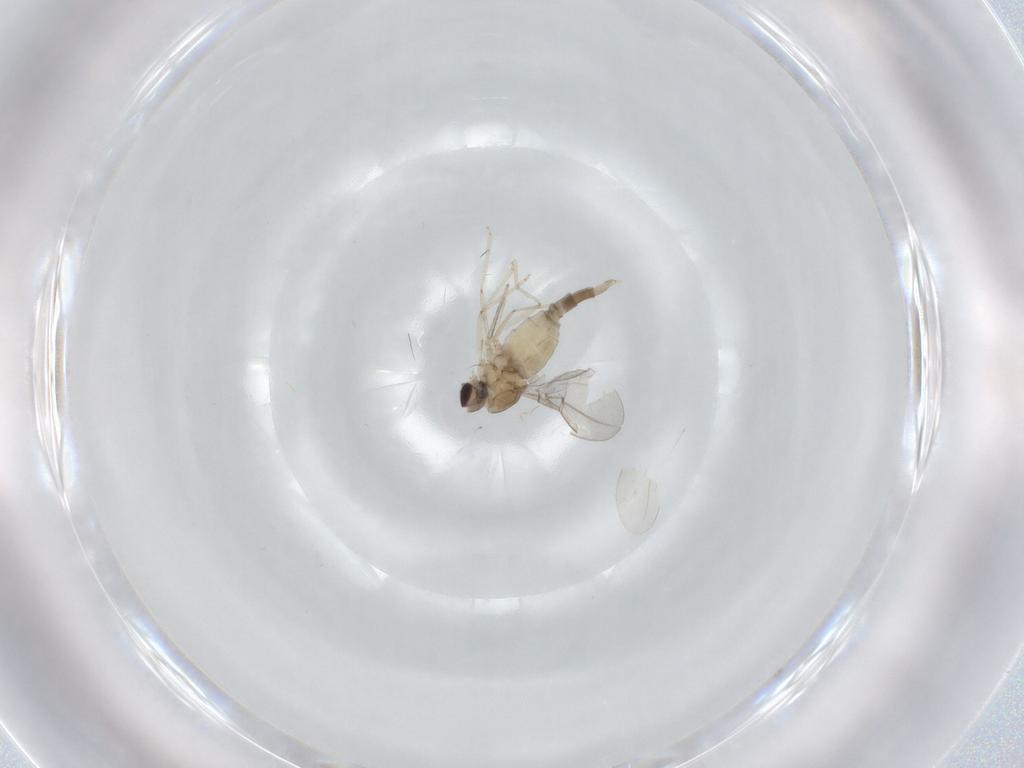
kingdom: Animalia
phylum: Arthropoda
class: Insecta
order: Diptera
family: Cecidomyiidae
